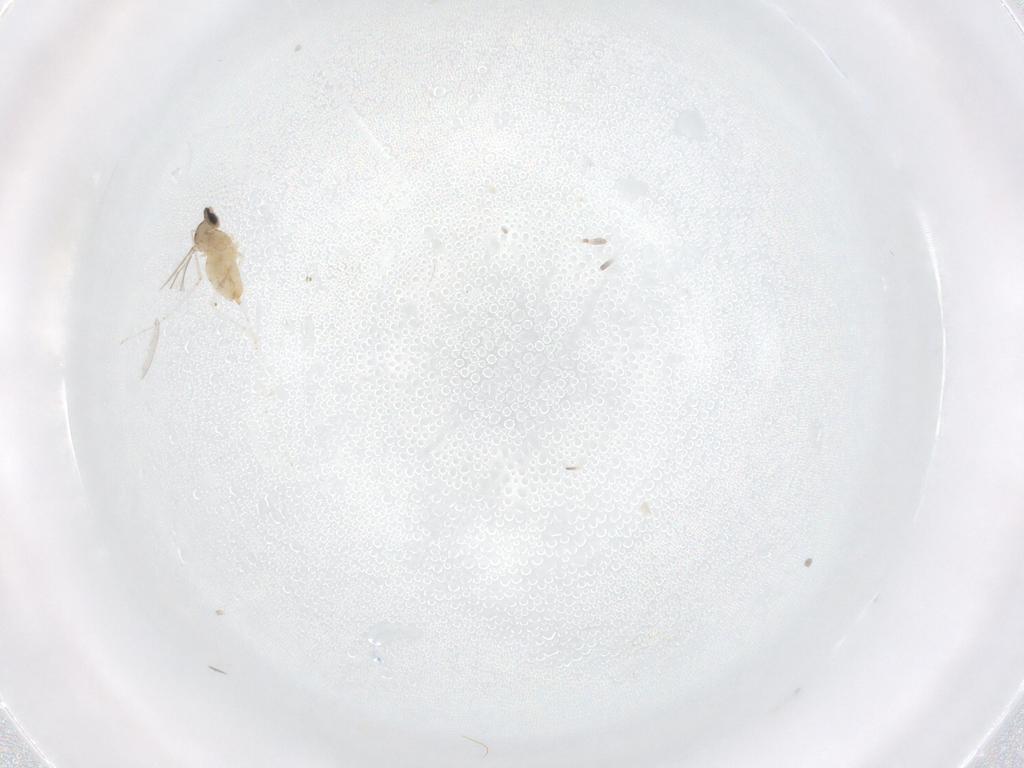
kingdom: Animalia
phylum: Arthropoda
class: Insecta
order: Diptera
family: Cecidomyiidae
